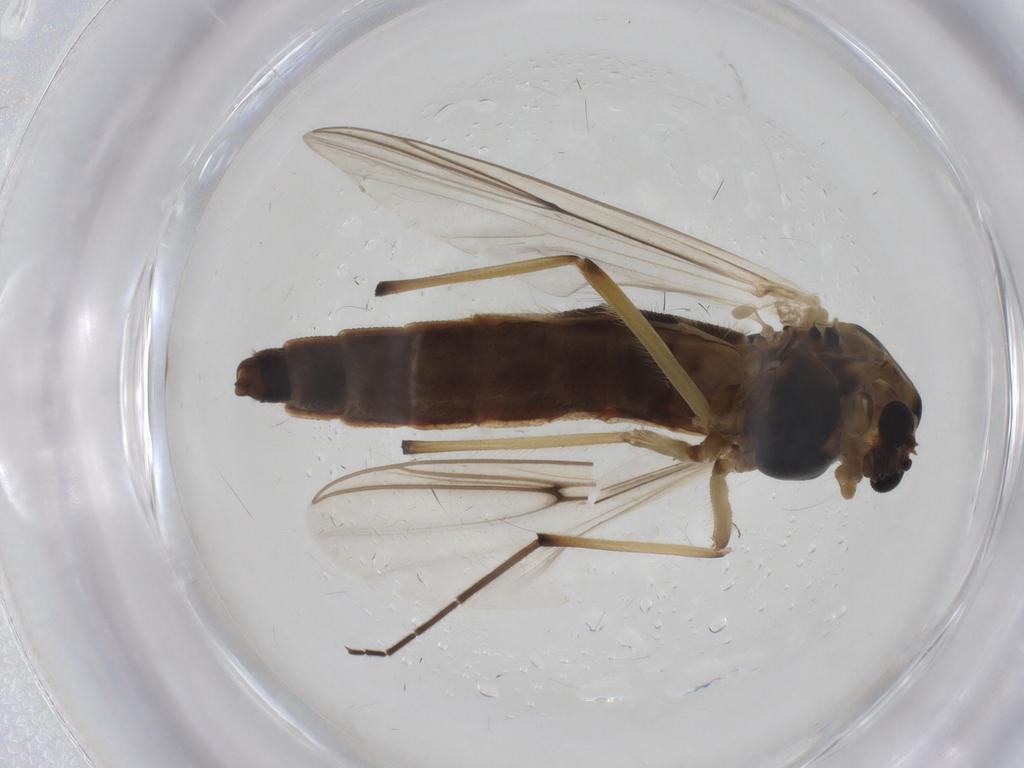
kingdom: Animalia
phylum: Arthropoda
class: Insecta
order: Diptera
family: Chironomidae
